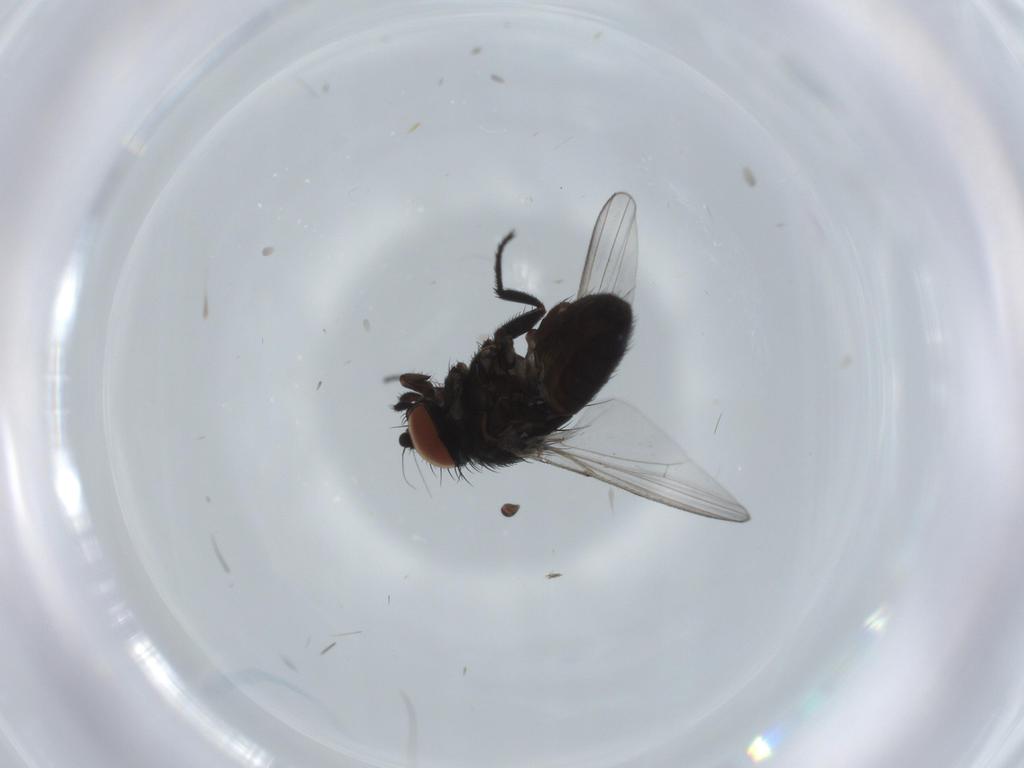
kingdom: Animalia
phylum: Arthropoda
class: Insecta
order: Diptera
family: Milichiidae
